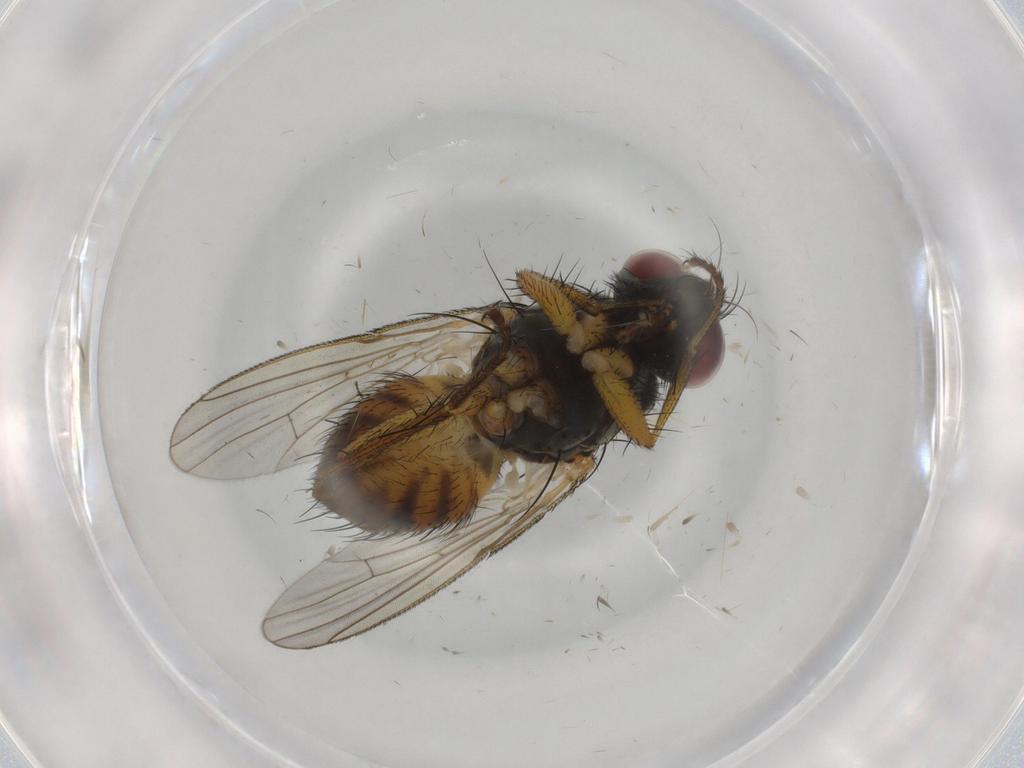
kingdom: Animalia
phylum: Arthropoda
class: Insecta
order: Diptera
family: Muscidae
